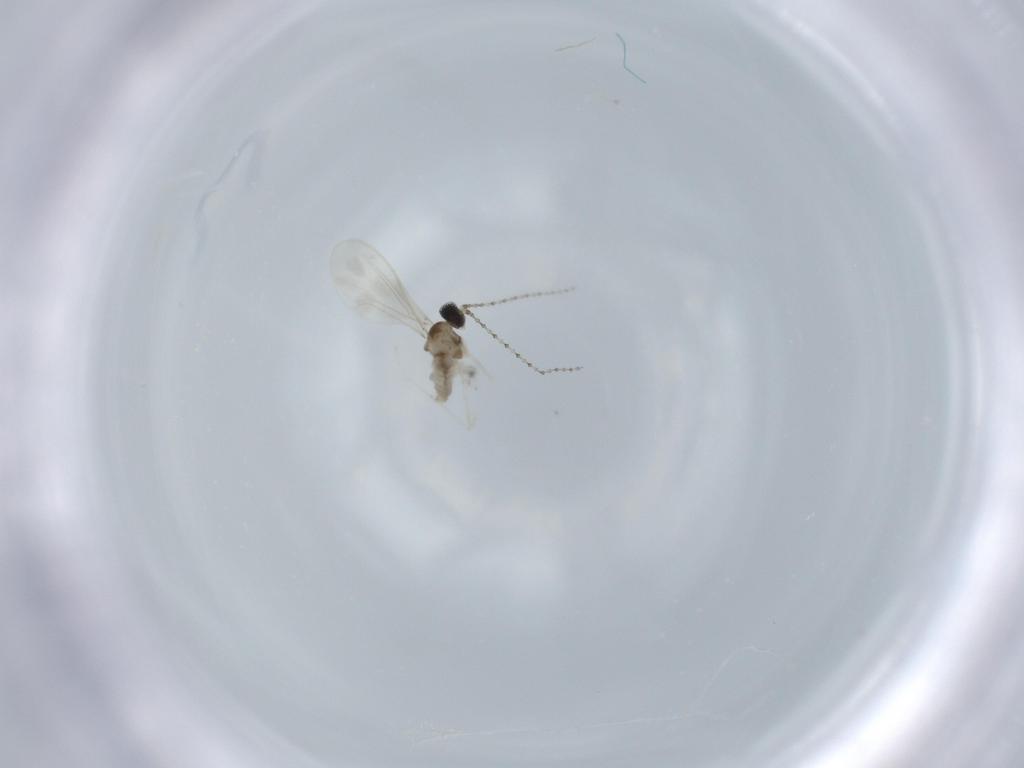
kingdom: Animalia
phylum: Arthropoda
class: Insecta
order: Diptera
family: Cecidomyiidae
